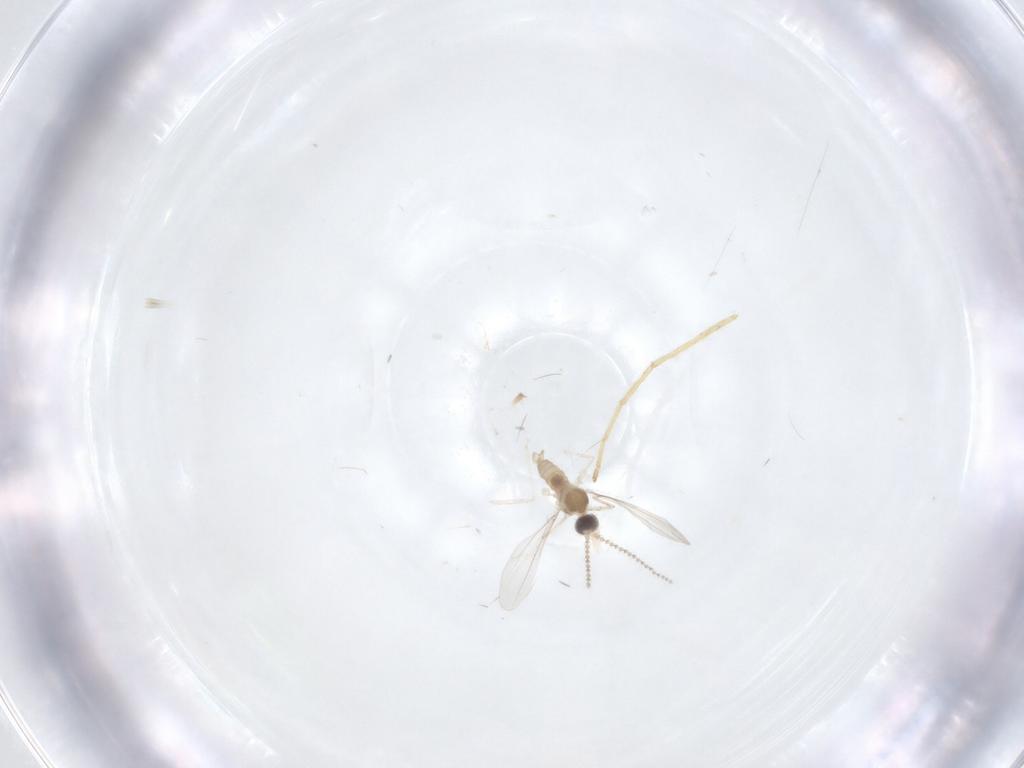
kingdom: Animalia
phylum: Arthropoda
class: Insecta
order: Diptera
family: Chironomidae
